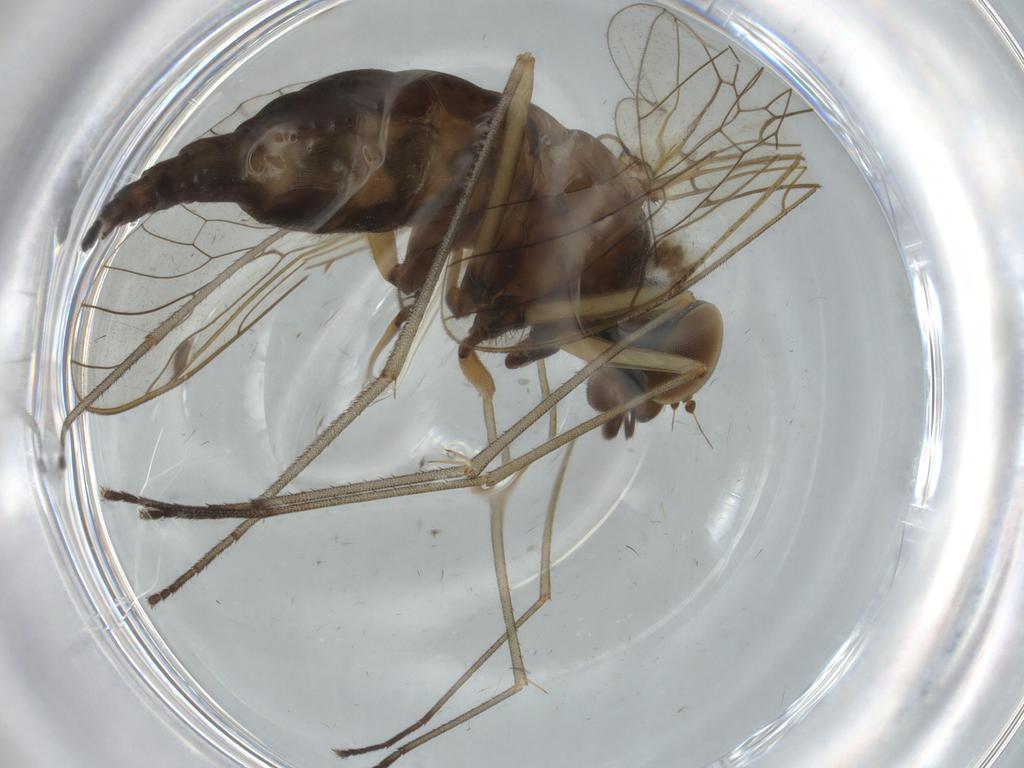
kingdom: Animalia
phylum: Arthropoda
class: Insecta
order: Diptera
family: Chironomidae
